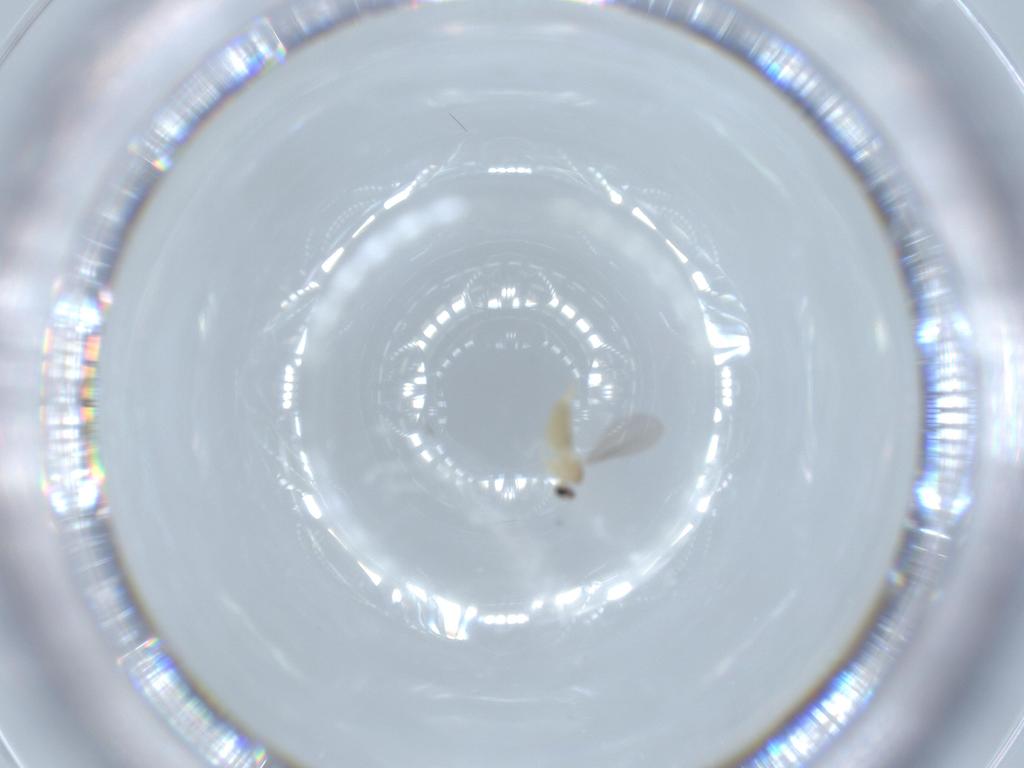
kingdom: Animalia
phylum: Arthropoda
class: Insecta
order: Diptera
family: Cecidomyiidae
